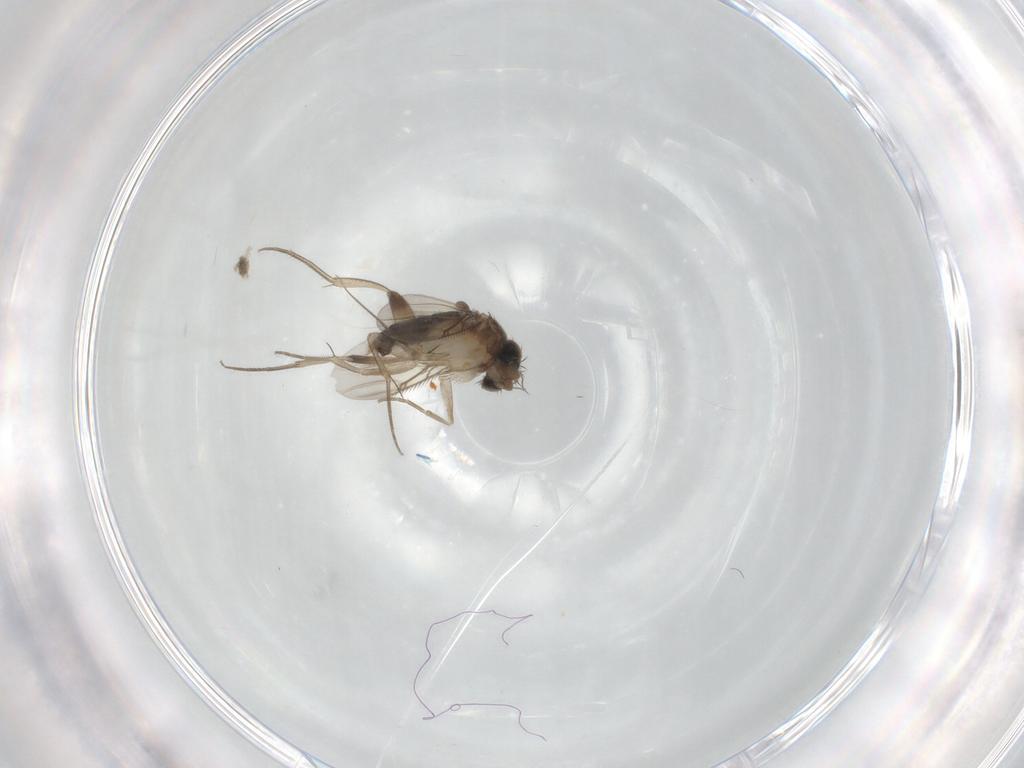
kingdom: Animalia
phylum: Arthropoda
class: Insecta
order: Diptera
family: Phoridae
